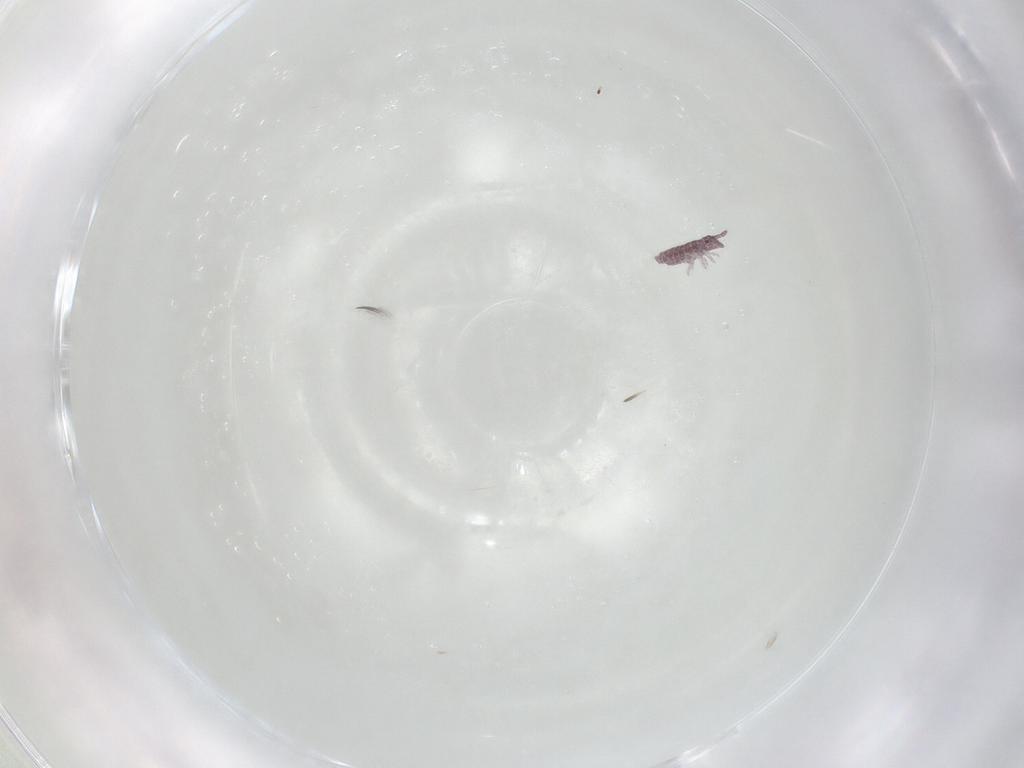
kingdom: Animalia
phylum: Arthropoda
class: Collembola
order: Poduromorpha
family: Hypogastruridae
